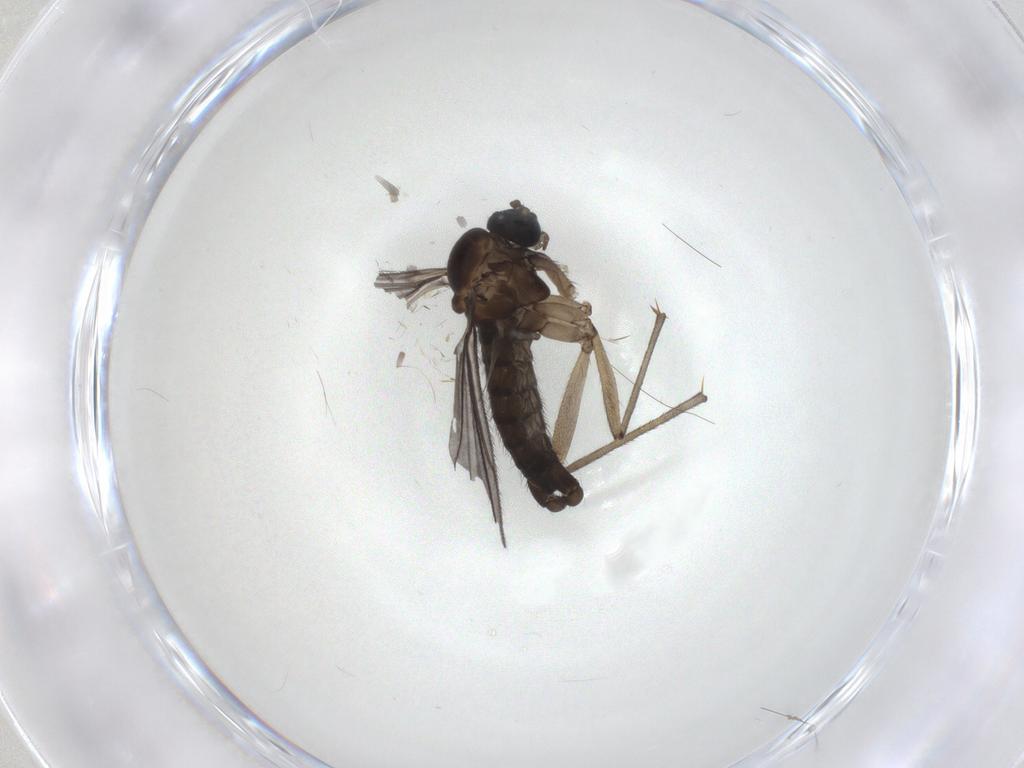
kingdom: Animalia
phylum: Arthropoda
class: Insecta
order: Diptera
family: Sciaridae
